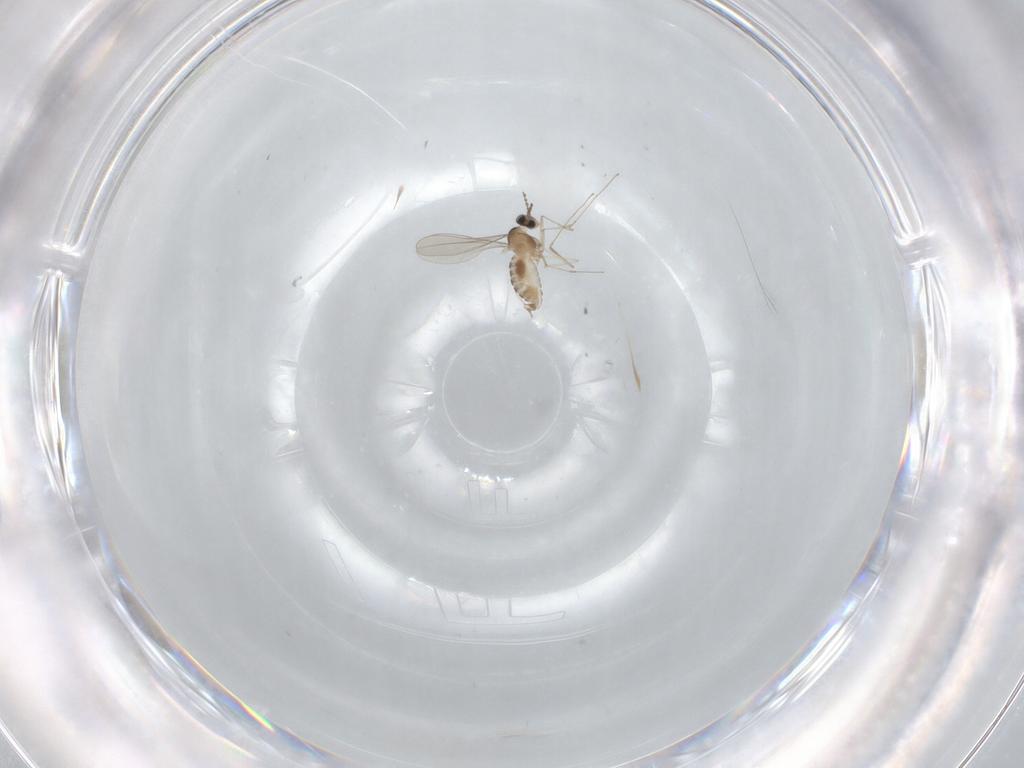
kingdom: Animalia
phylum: Arthropoda
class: Insecta
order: Diptera
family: Cecidomyiidae
